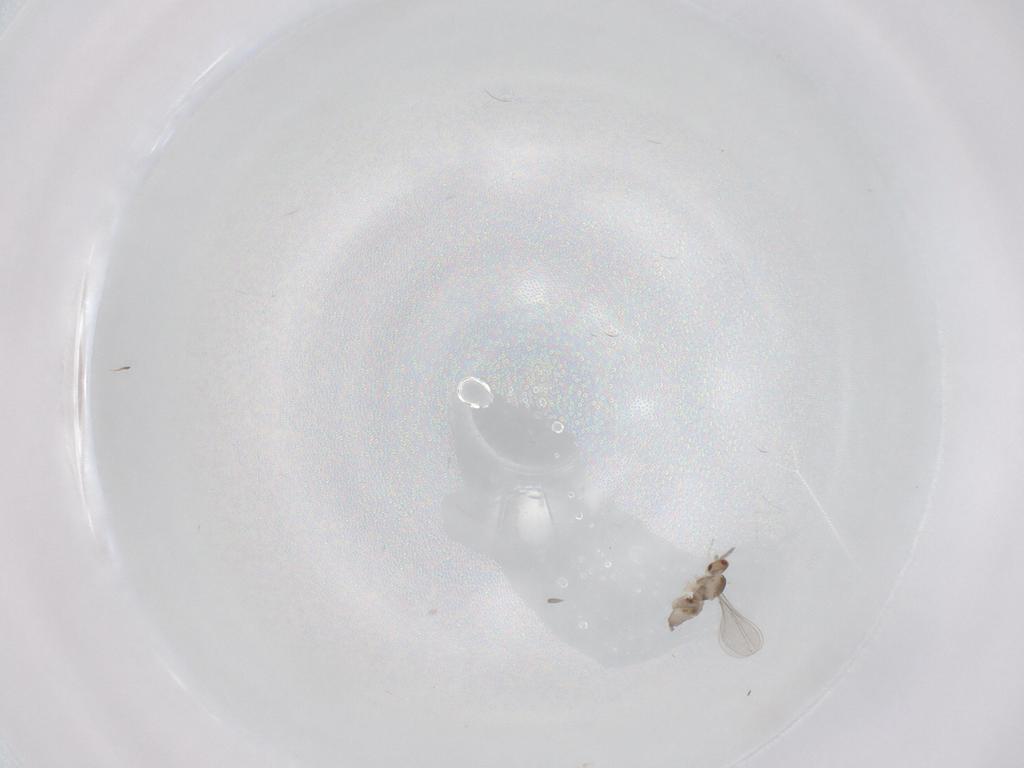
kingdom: Animalia
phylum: Arthropoda
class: Insecta
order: Diptera
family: Cecidomyiidae
